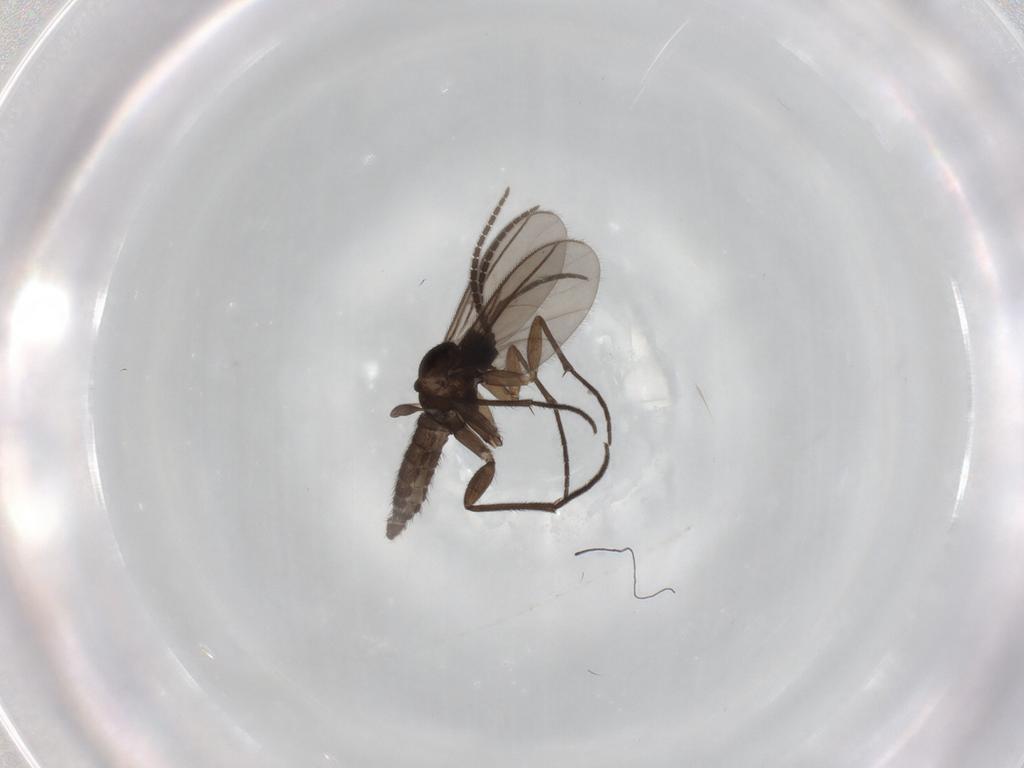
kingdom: Animalia
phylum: Arthropoda
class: Insecta
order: Diptera
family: Sciaridae
